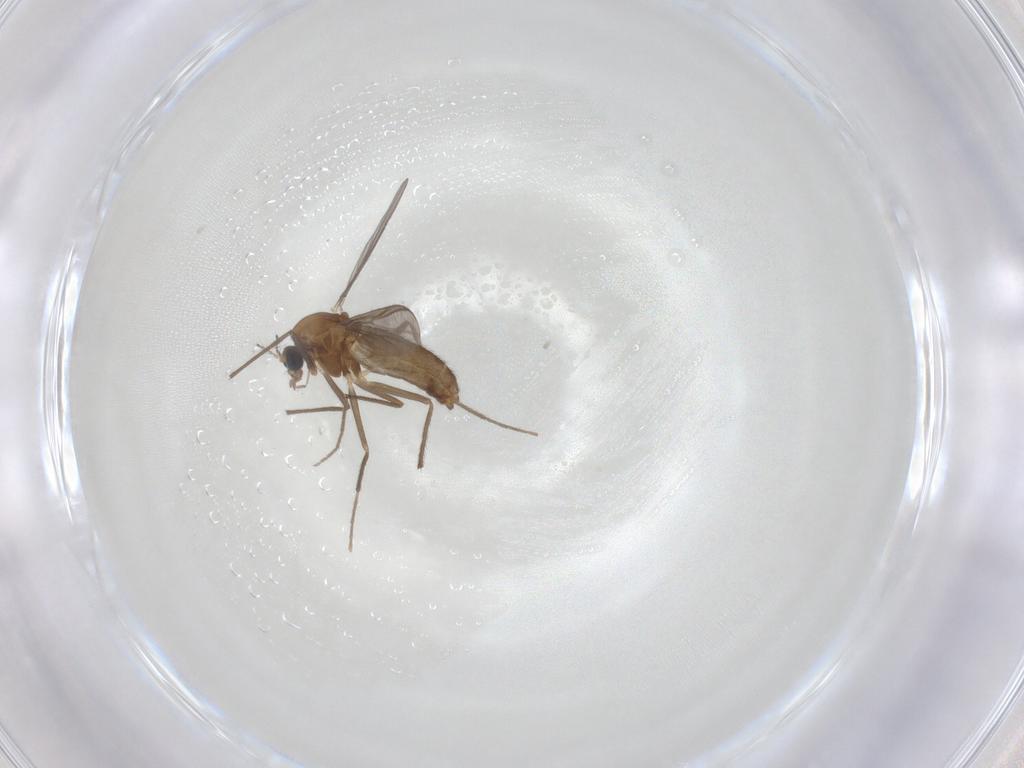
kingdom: Animalia
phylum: Arthropoda
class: Insecta
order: Diptera
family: Chironomidae
